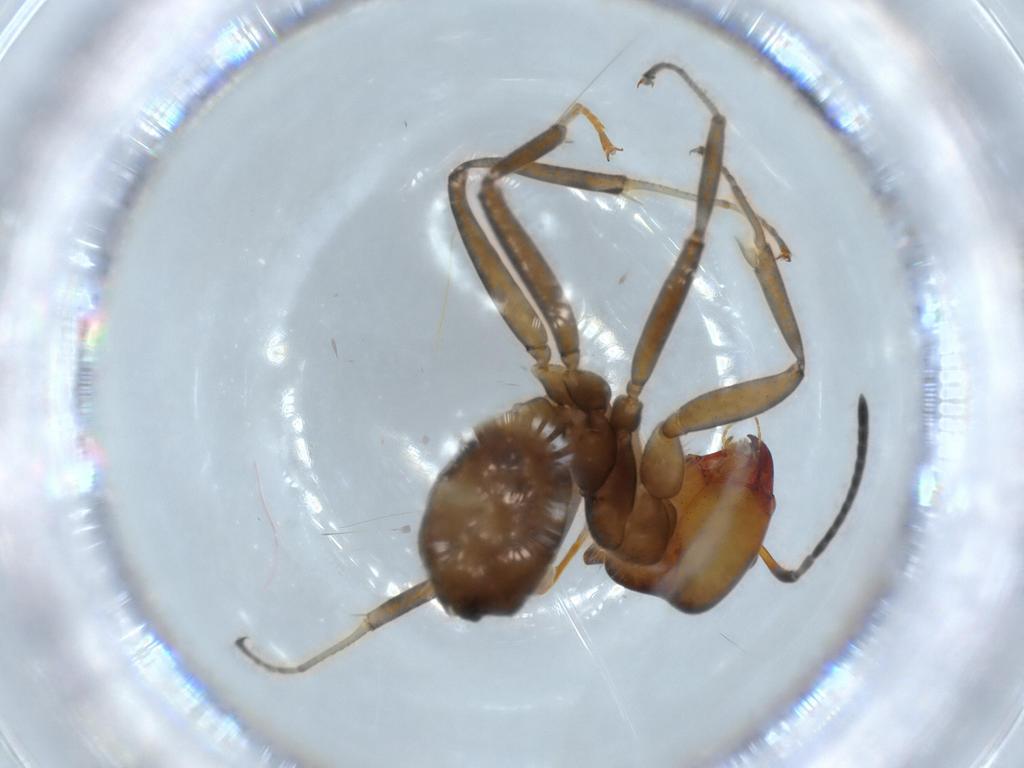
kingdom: Animalia
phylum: Arthropoda
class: Insecta
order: Hymenoptera
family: Formicidae
